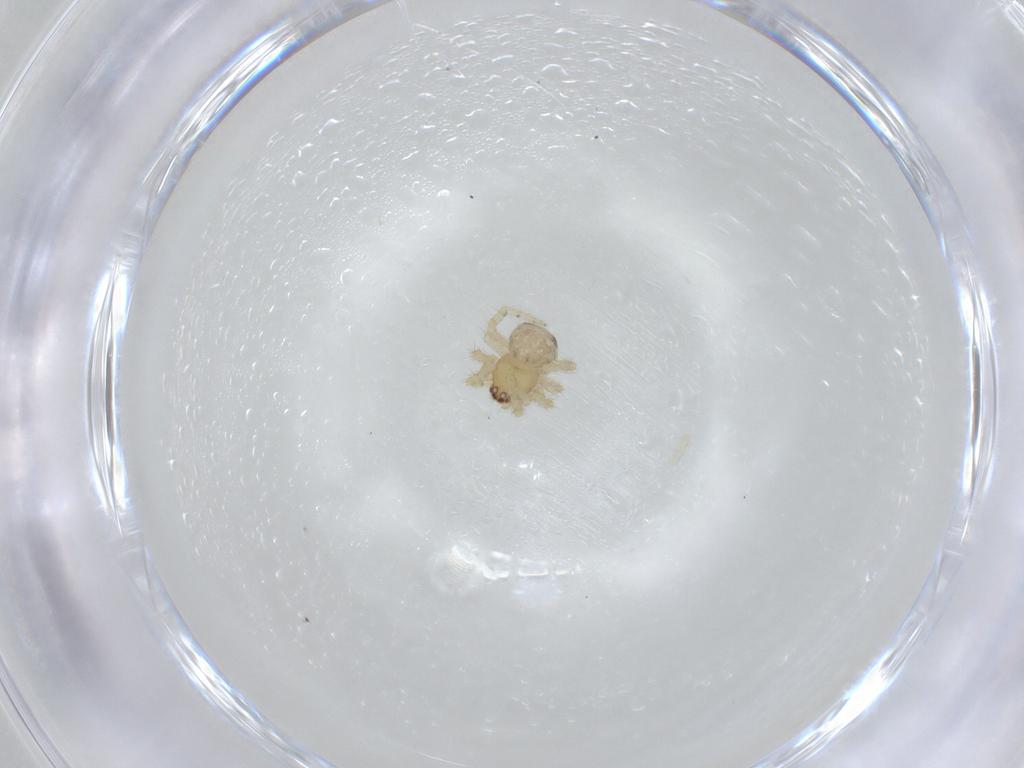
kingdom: Animalia
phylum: Arthropoda
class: Arachnida
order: Araneae
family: Theridiidae
